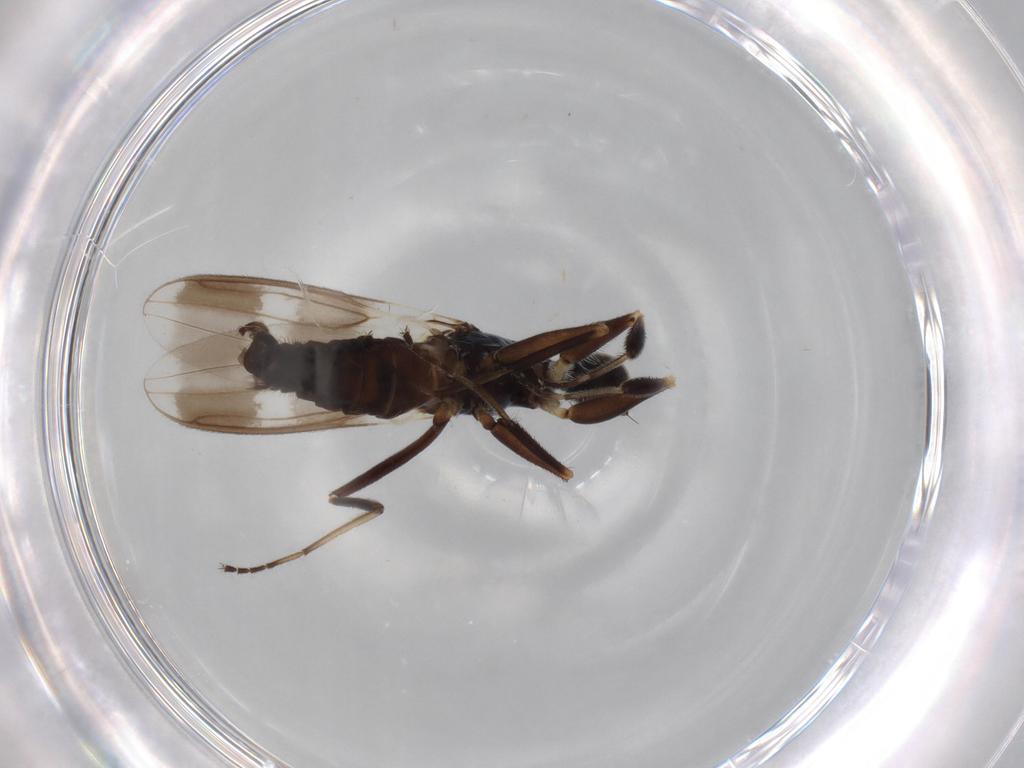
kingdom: Animalia
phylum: Arthropoda
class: Insecta
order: Diptera
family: Hybotidae
